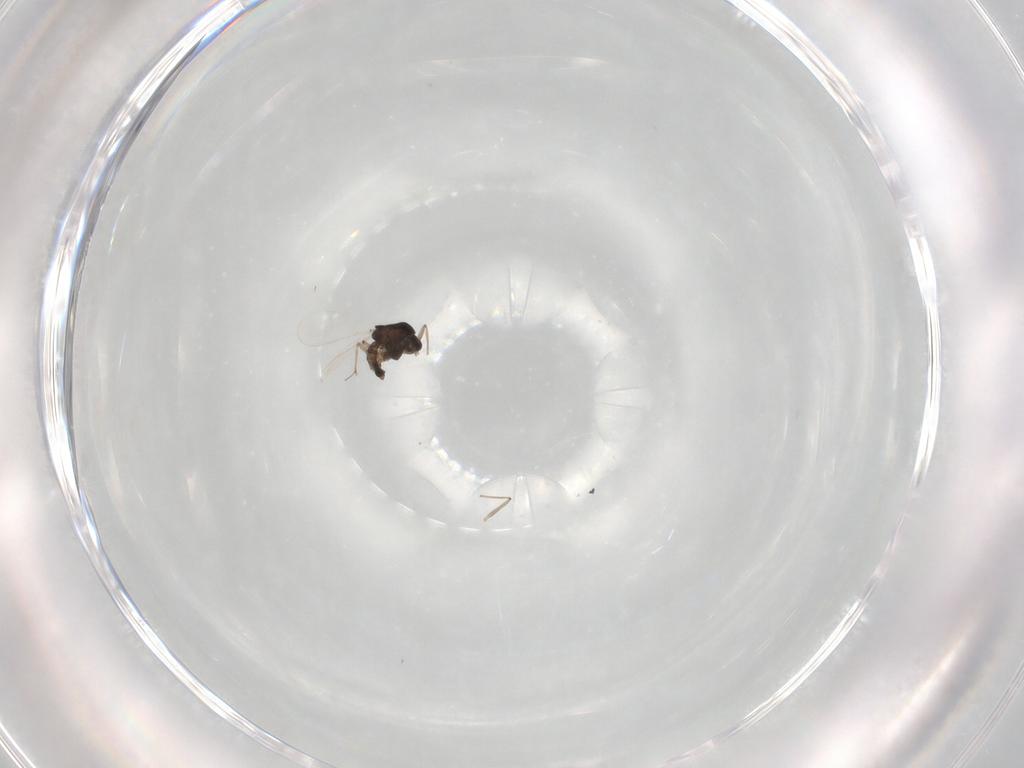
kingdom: Animalia
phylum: Arthropoda
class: Insecta
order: Diptera
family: Chironomidae
